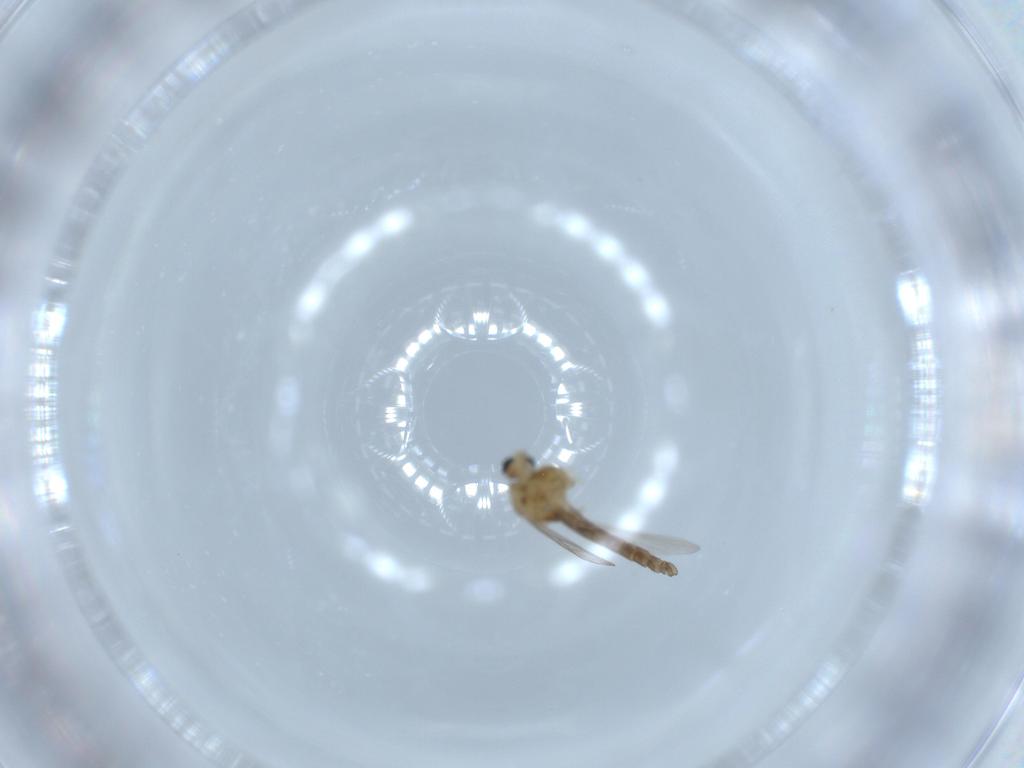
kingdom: Animalia
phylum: Arthropoda
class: Insecta
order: Diptera
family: Chironomidae
